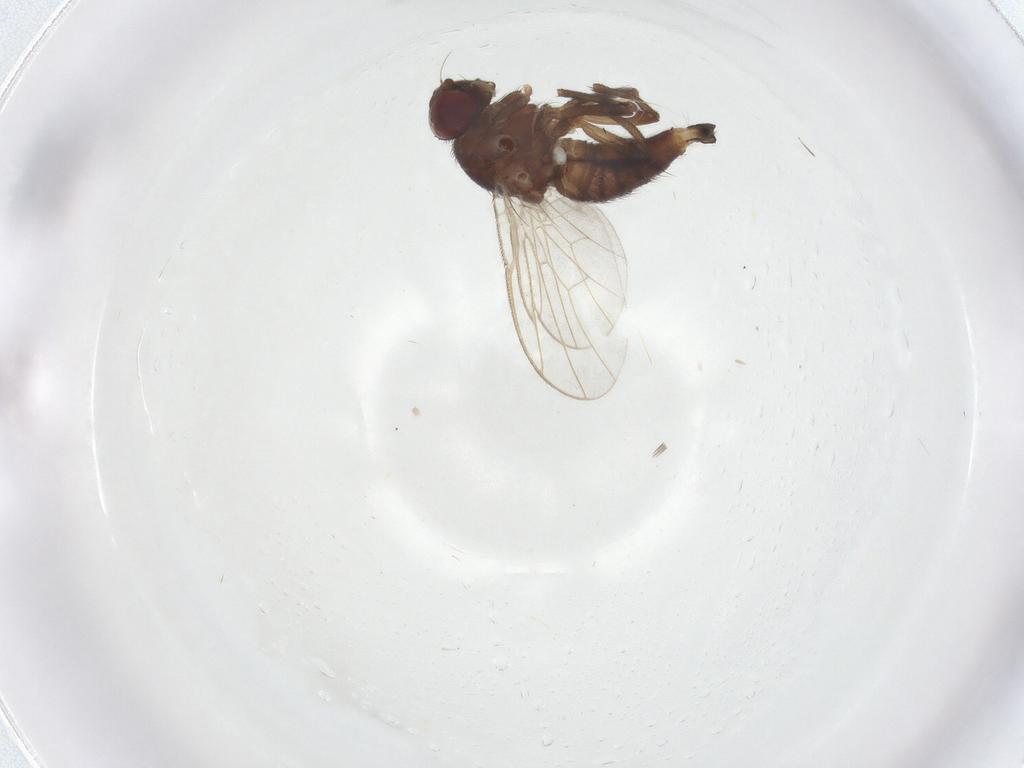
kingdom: Animalia
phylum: Arthropoda
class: Insecta
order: Diptera
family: Agromyzidae
